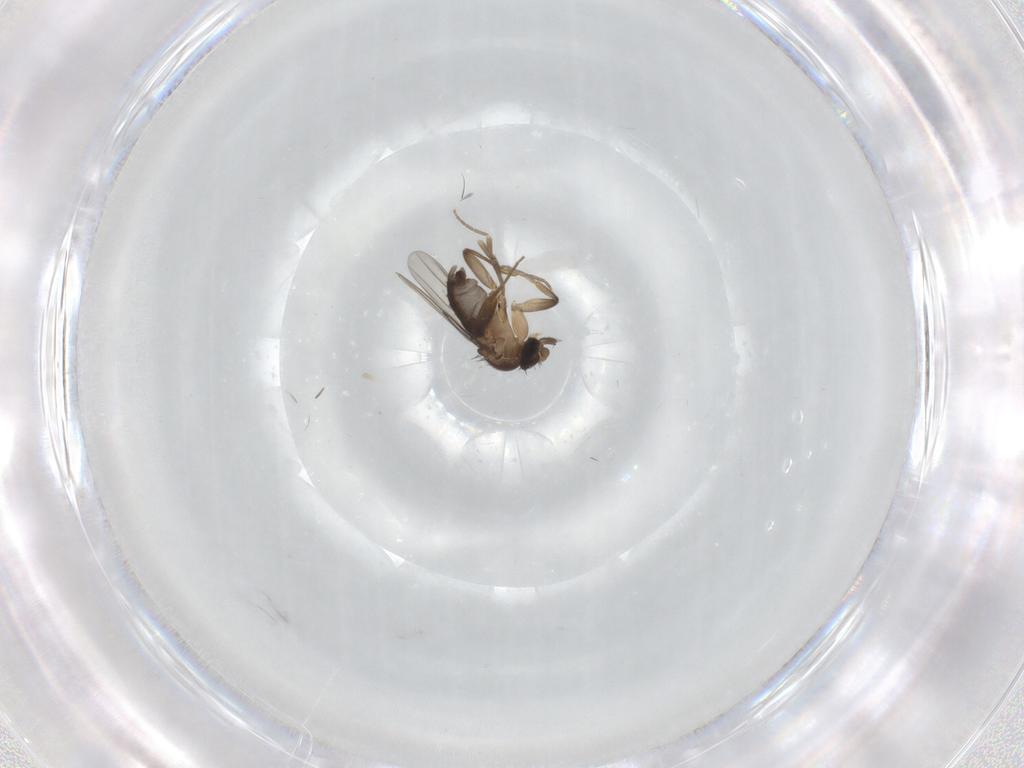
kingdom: Animalia
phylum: Arthropoda
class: Insecta
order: Diptera
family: Phoridae
